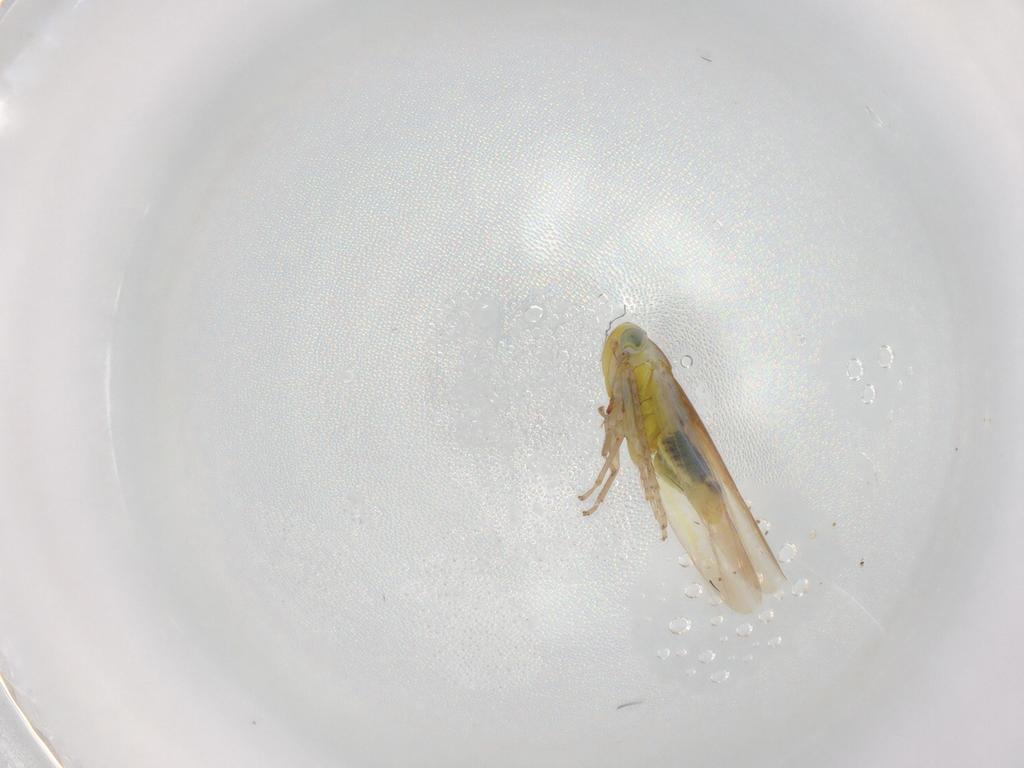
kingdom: Animalia
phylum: Arthropoda
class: Insecta
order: Hemiptera
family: Cicadellidae
